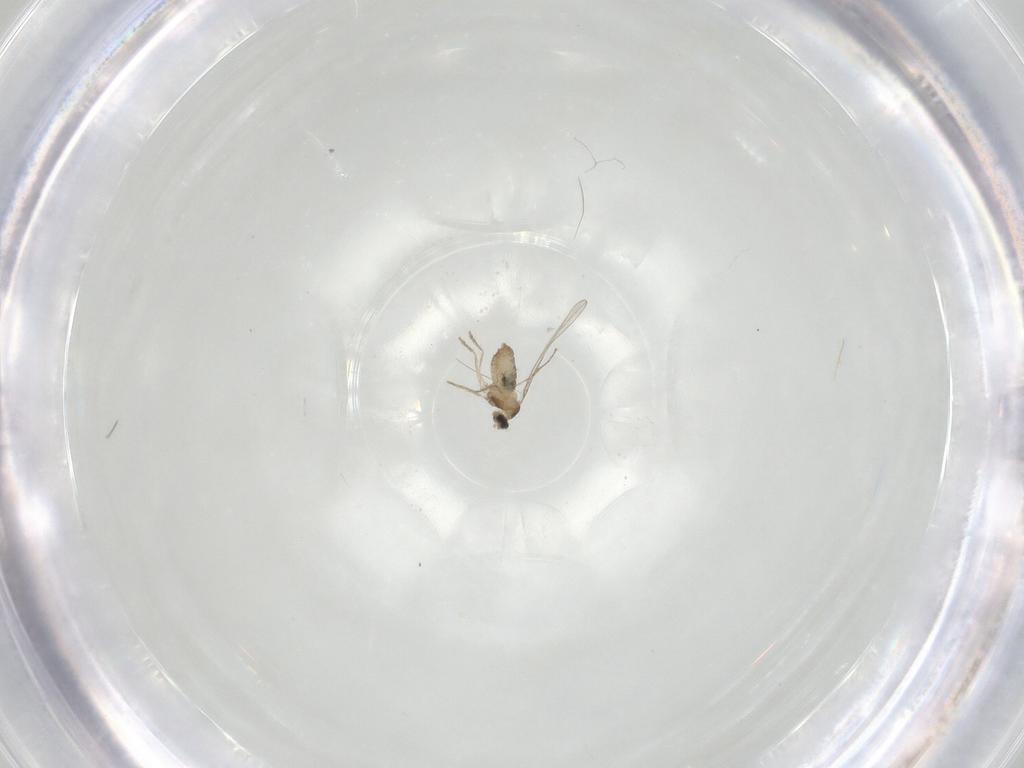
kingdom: Animalia
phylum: Arthropoda
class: Insecta
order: Diptera
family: Cecidomyiidae
